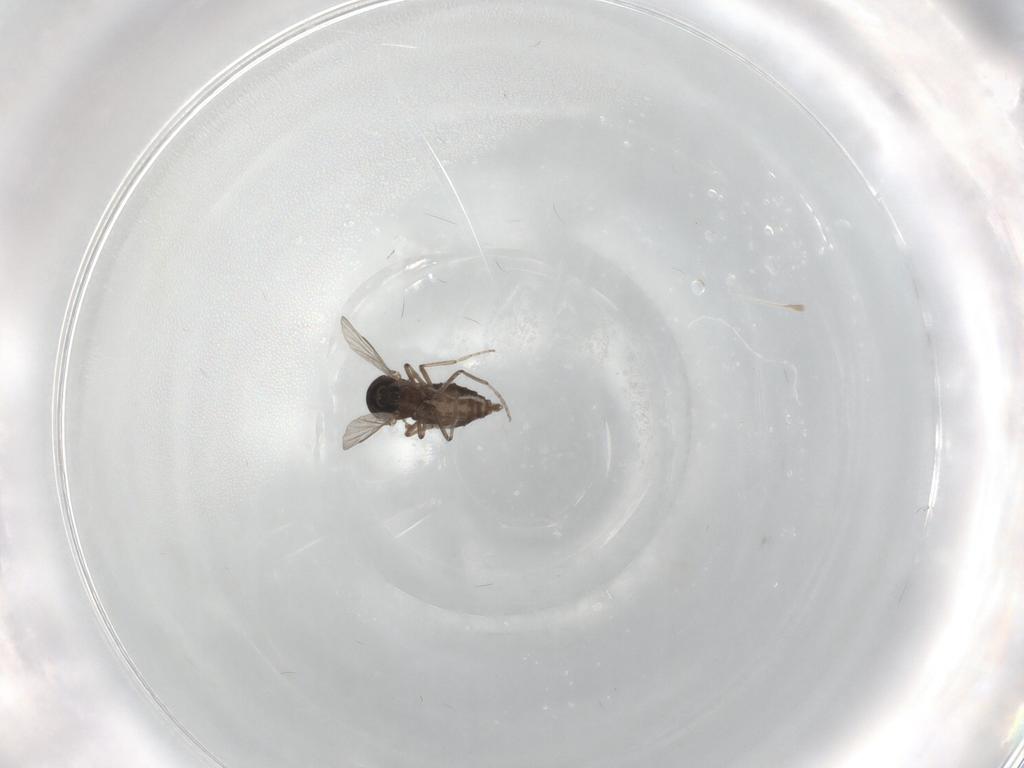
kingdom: Animalia
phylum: Arthropoda
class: Insecta
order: Diptera
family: Ceratopogonidae
